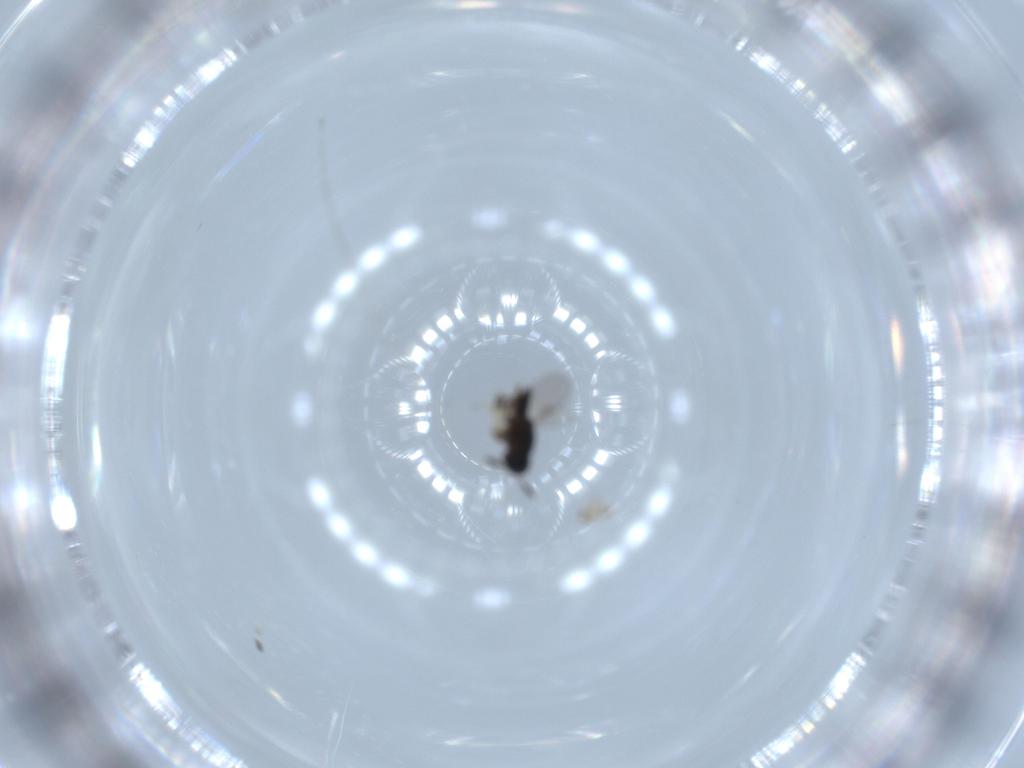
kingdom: Animalia
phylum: Arthropoda
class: Insecta
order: Hymenoptera
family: Encyrtidae
